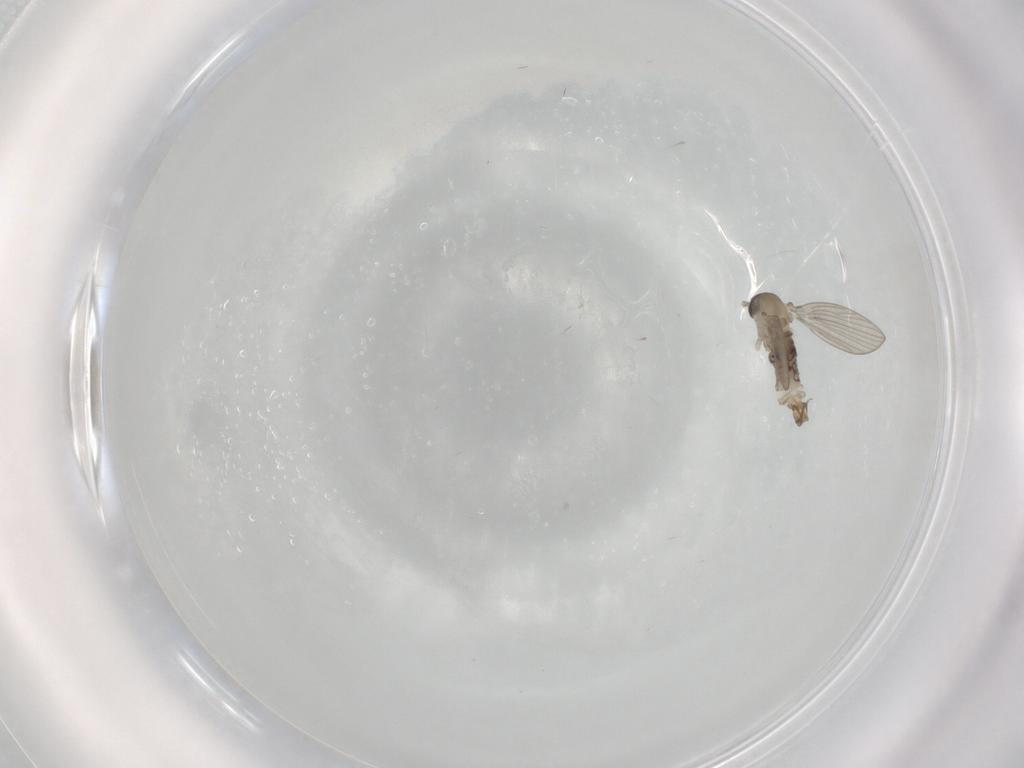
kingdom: Animalia
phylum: Arthropoda
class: Insecta
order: Diptera
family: Psychodidae
